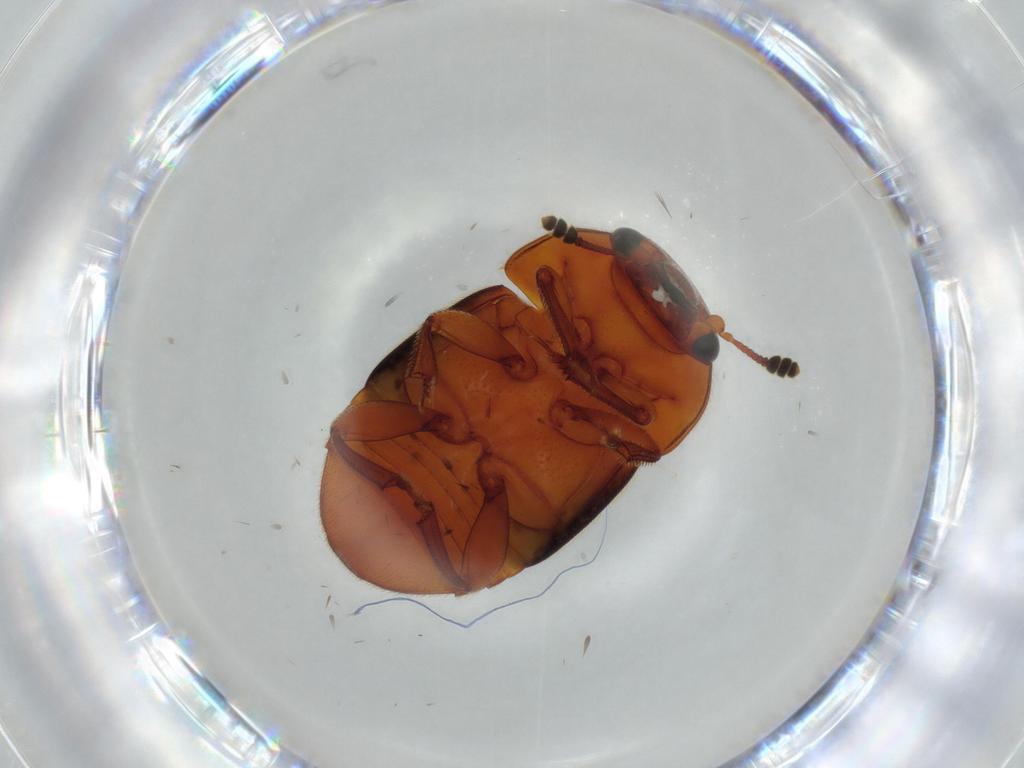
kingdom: Animalia
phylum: Arthropoda
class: Insecta
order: Coleoptera
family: Nitidulidae
